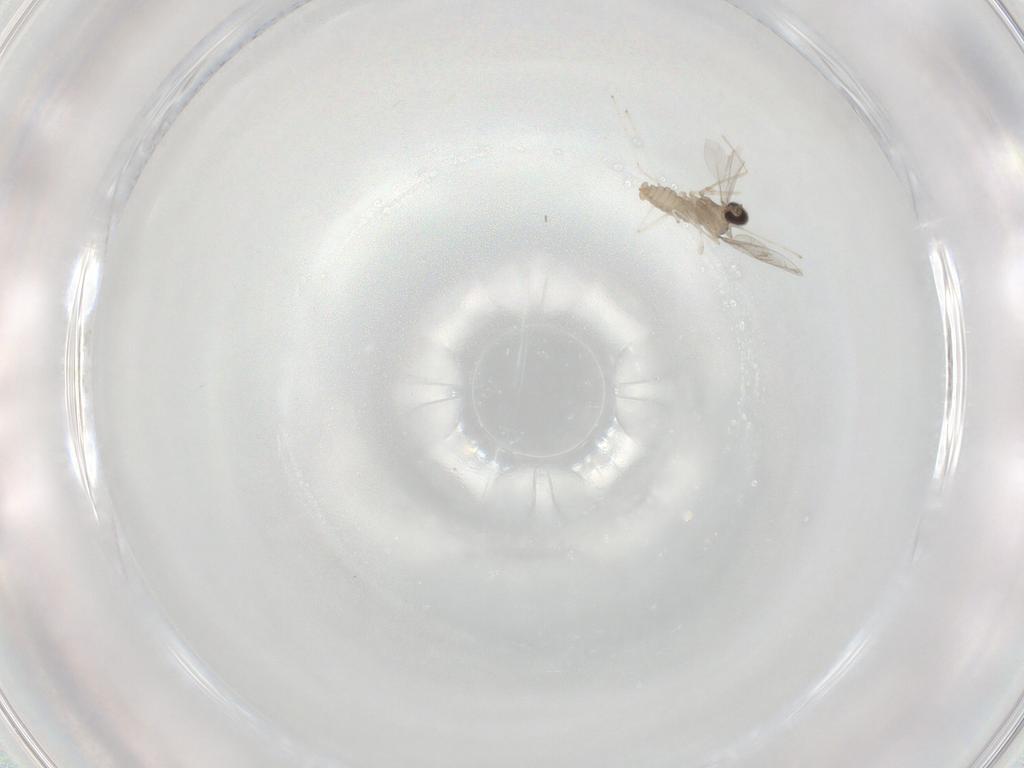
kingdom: Animalia
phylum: Arthropoda
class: Insecta
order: Diptera
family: Cecidomyiidae
